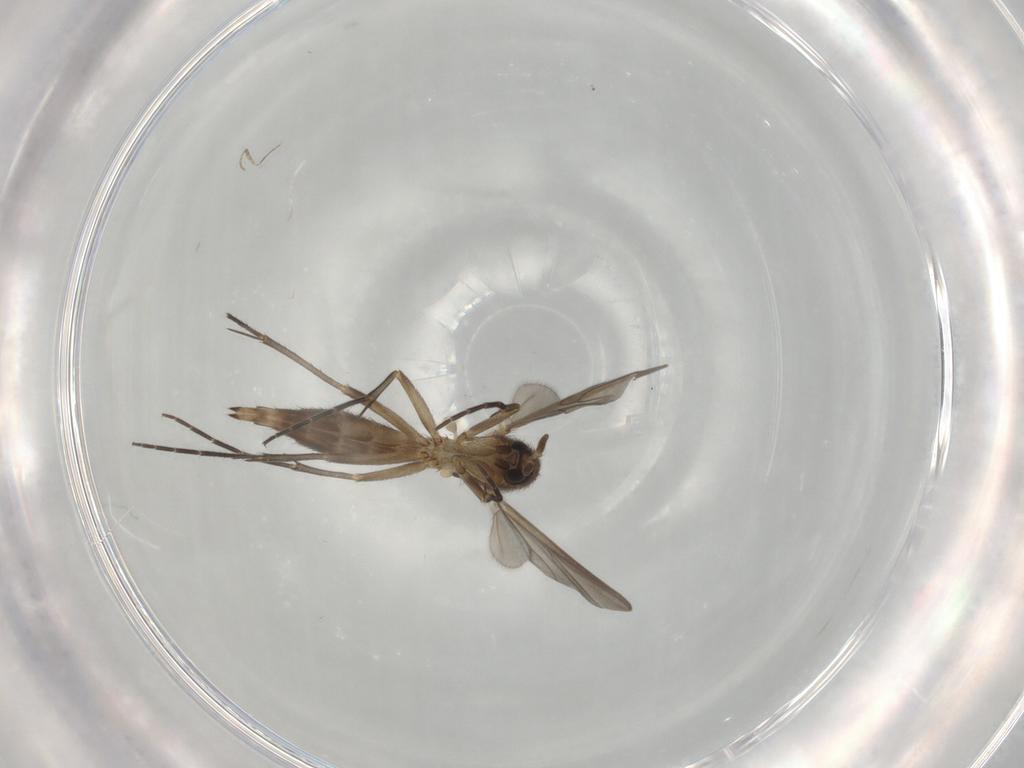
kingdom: Animalia
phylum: Arthropoda
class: Insecta
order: Diptera
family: Mycetophilidae
